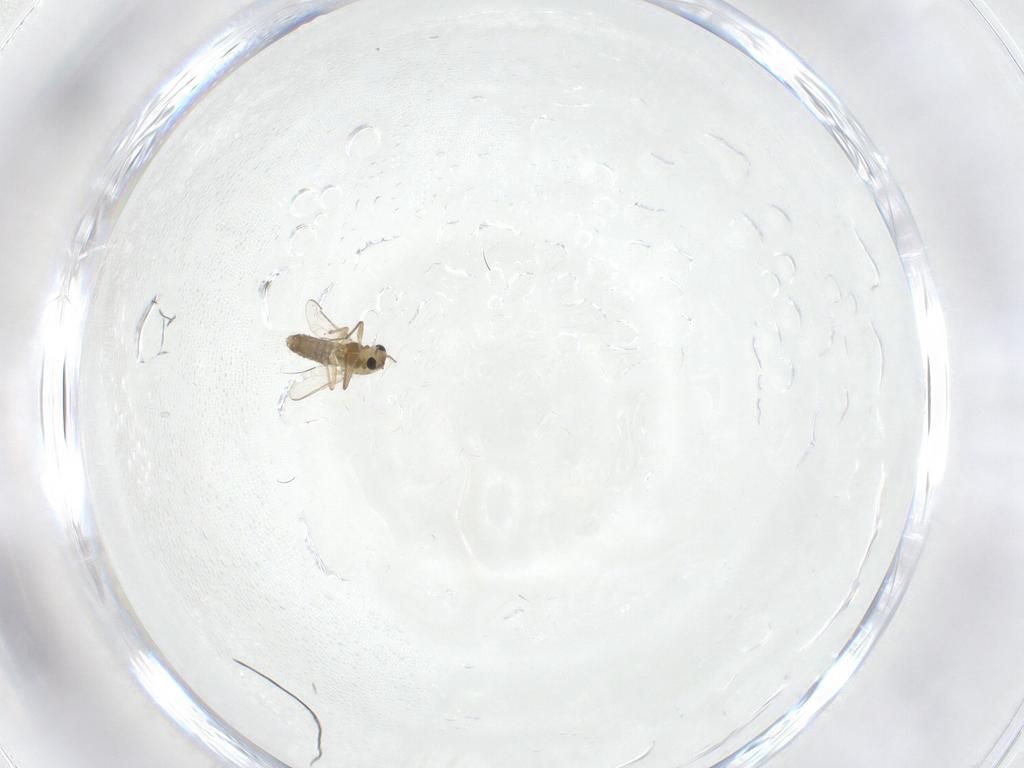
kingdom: Animalia
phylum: Arthropoda
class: Insecta
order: Diptera
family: Chironomidae
